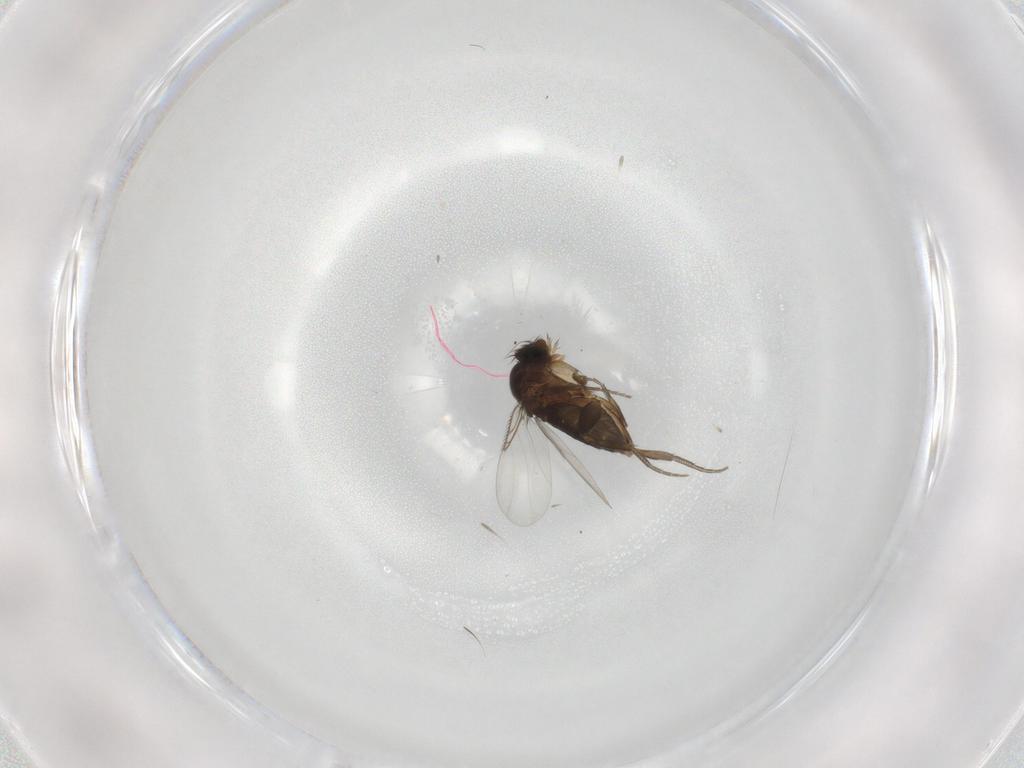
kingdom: Animalia
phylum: Arthropoda
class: Insecta
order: Diptera
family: Phoridae
